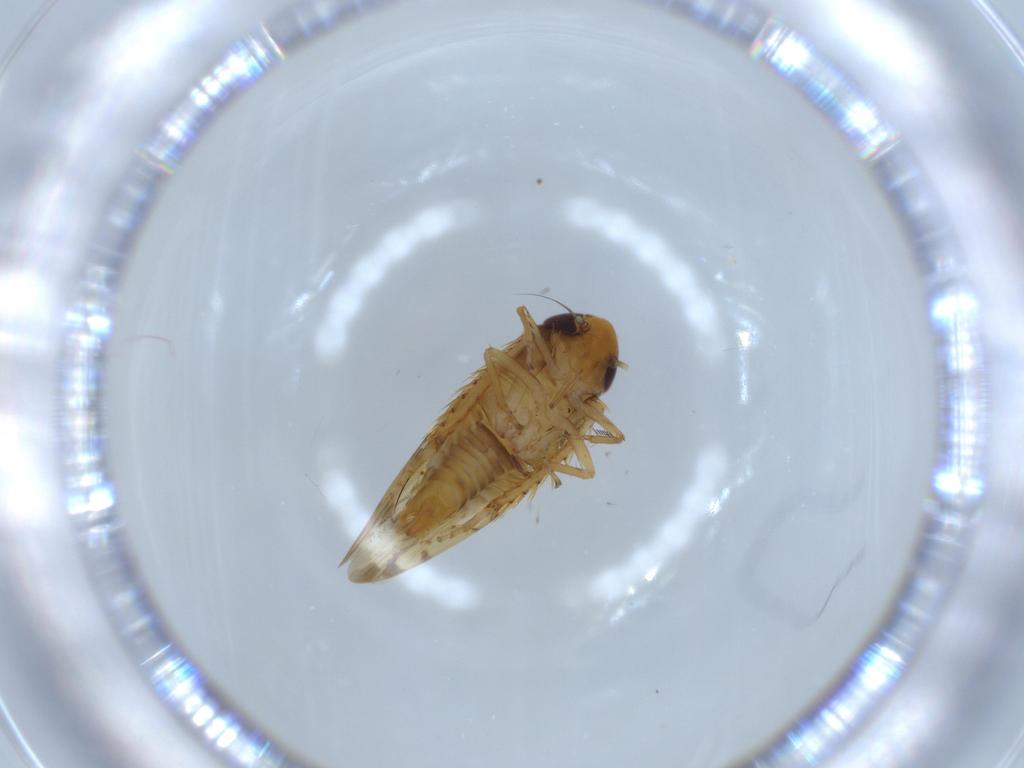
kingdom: Animalia
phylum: Arthropoda
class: Insecta
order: Hemiptera
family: Cicadellidae
